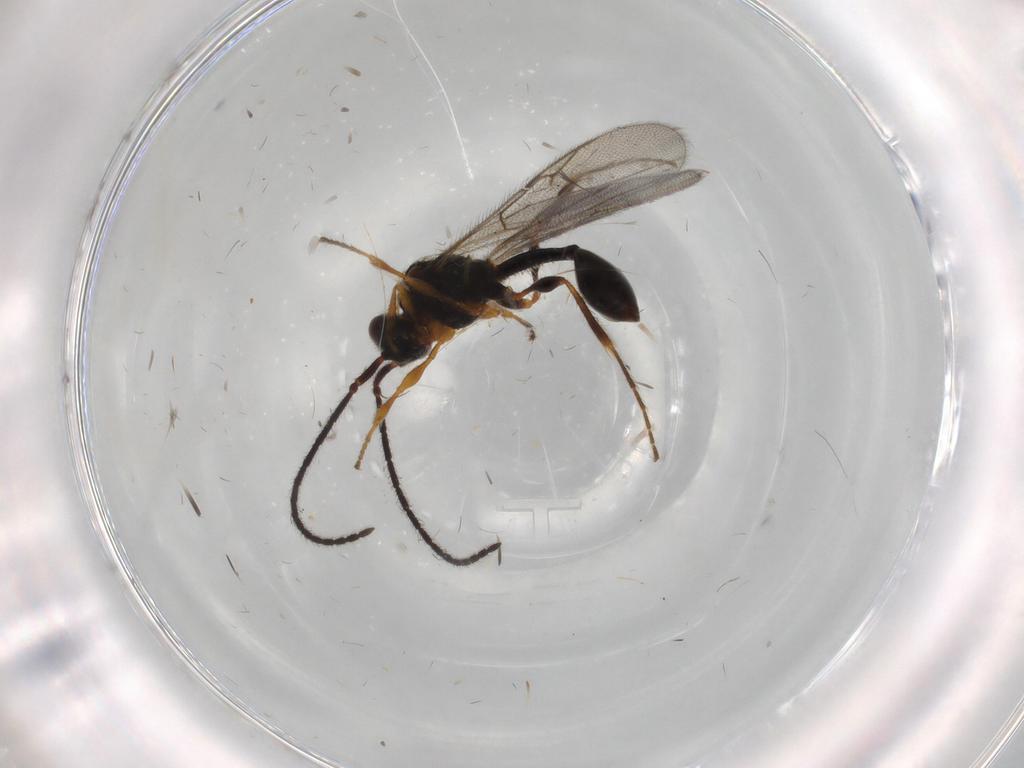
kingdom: Animalia
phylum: Arthropoda
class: Insecta
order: Hymenoptera
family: Diapriidae
